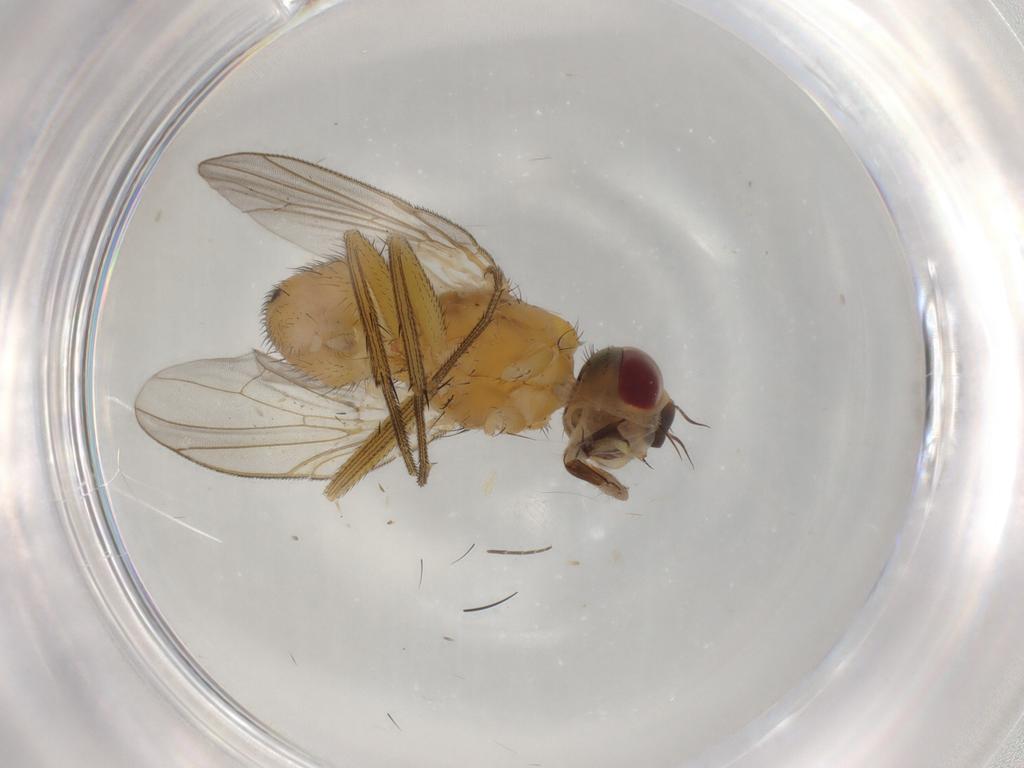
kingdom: Animalia
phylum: Arthropoda
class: Insecta
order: Diptera
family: Muscidae
